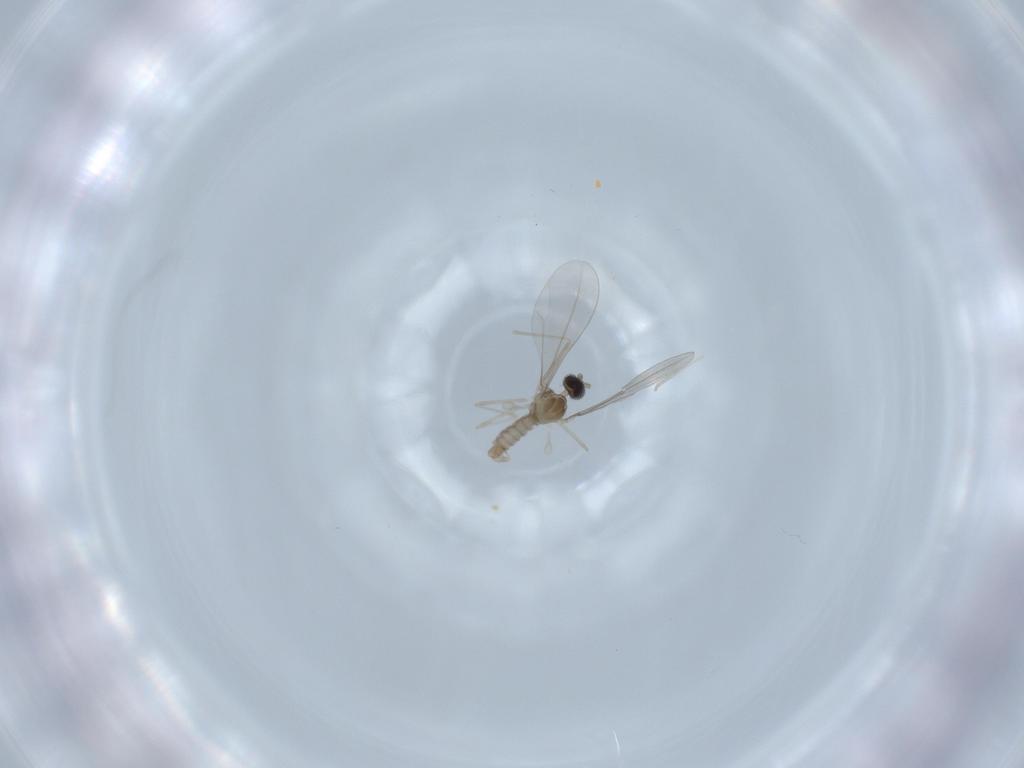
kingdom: Animalia
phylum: Arthropoda
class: Insecta
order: Diptera
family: Cecidomyiidae
